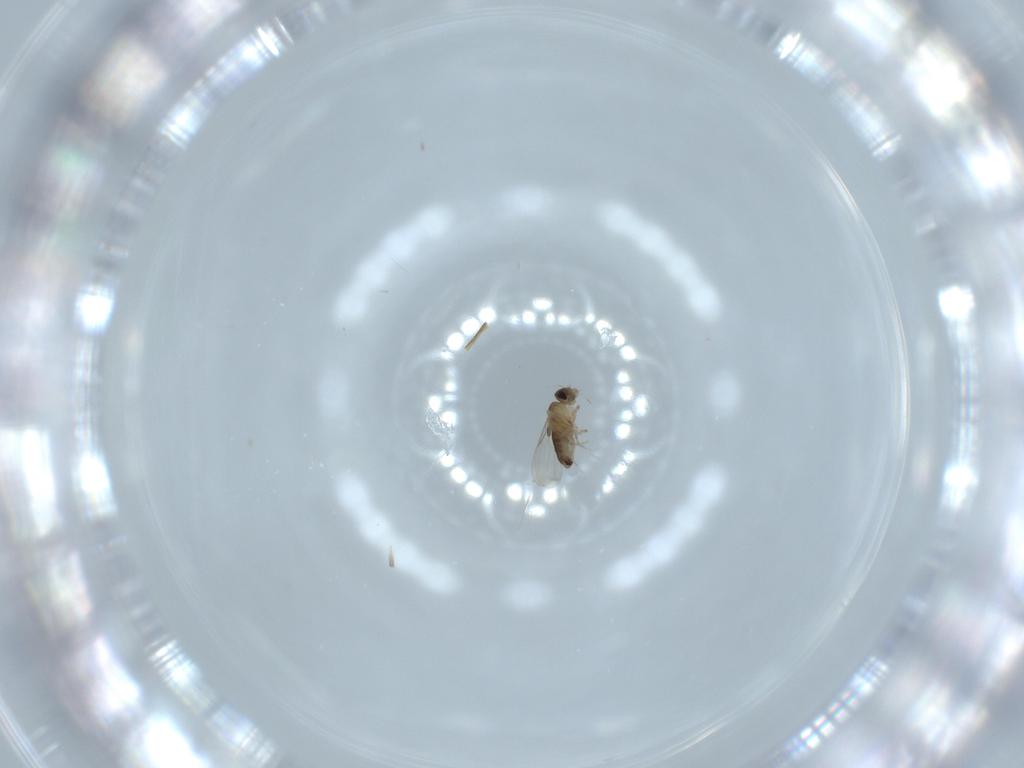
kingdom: Animalia
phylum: Arthropoda
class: Insecta
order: Diptera
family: Phoridae
